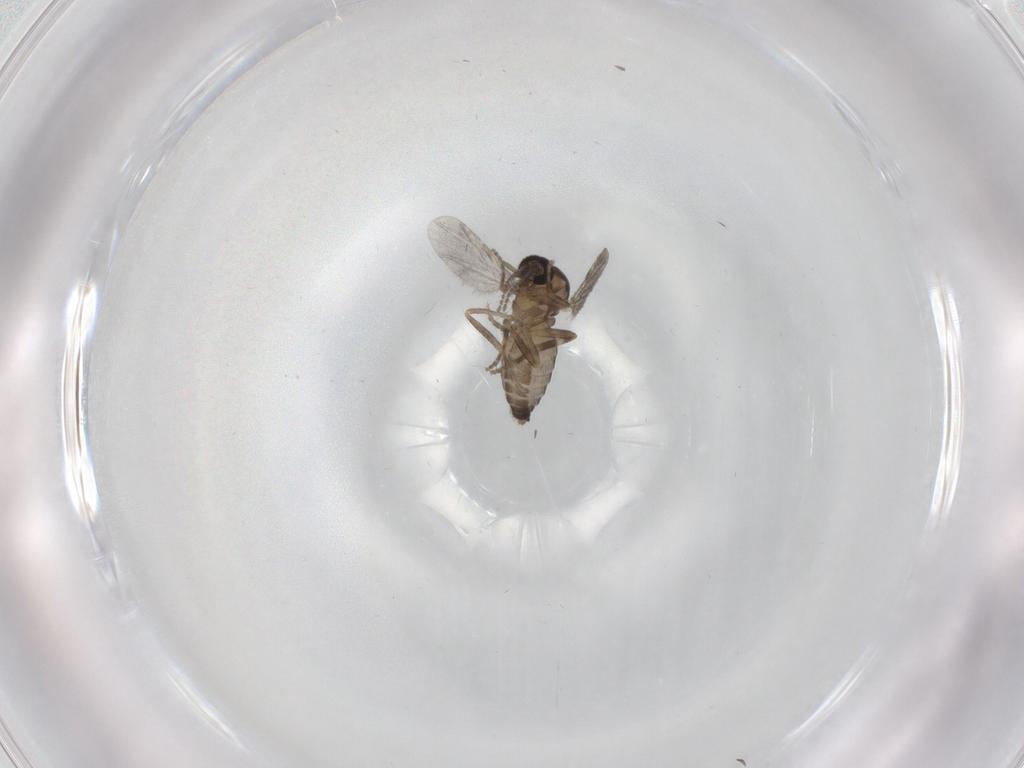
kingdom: Animalia
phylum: Arthropoda
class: Insecta
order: Diptera
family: Ceratopogonidae
